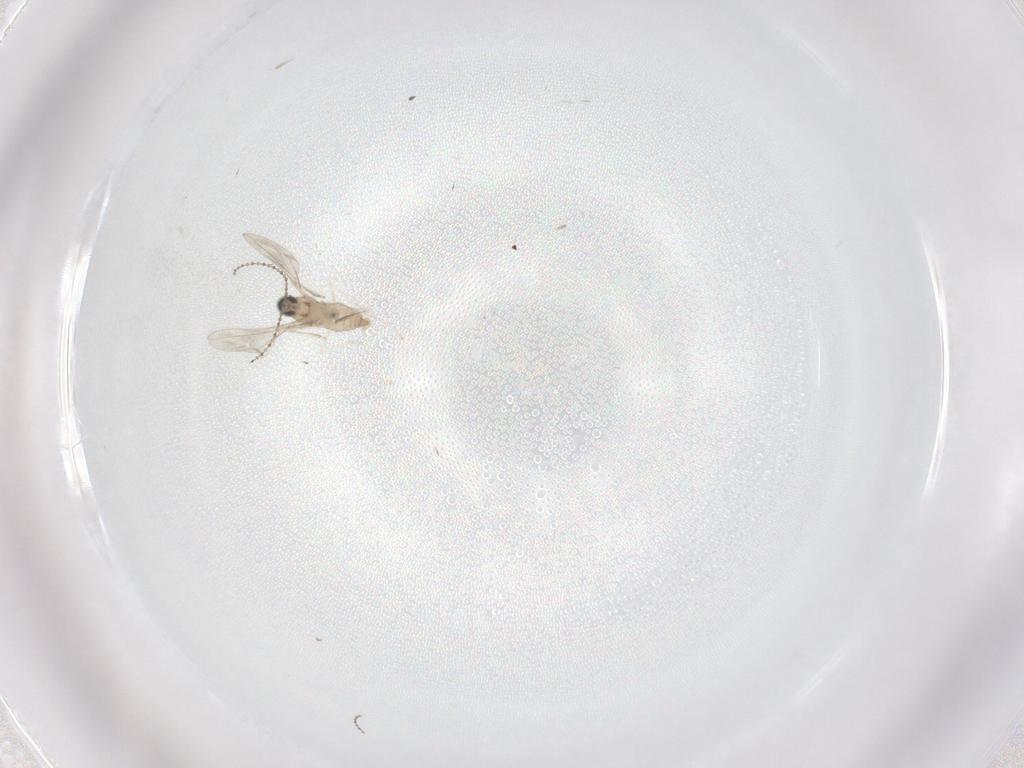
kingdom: Animalia
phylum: Arthropoda
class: Insecta
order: Diptera
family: Cecidomyiidae
